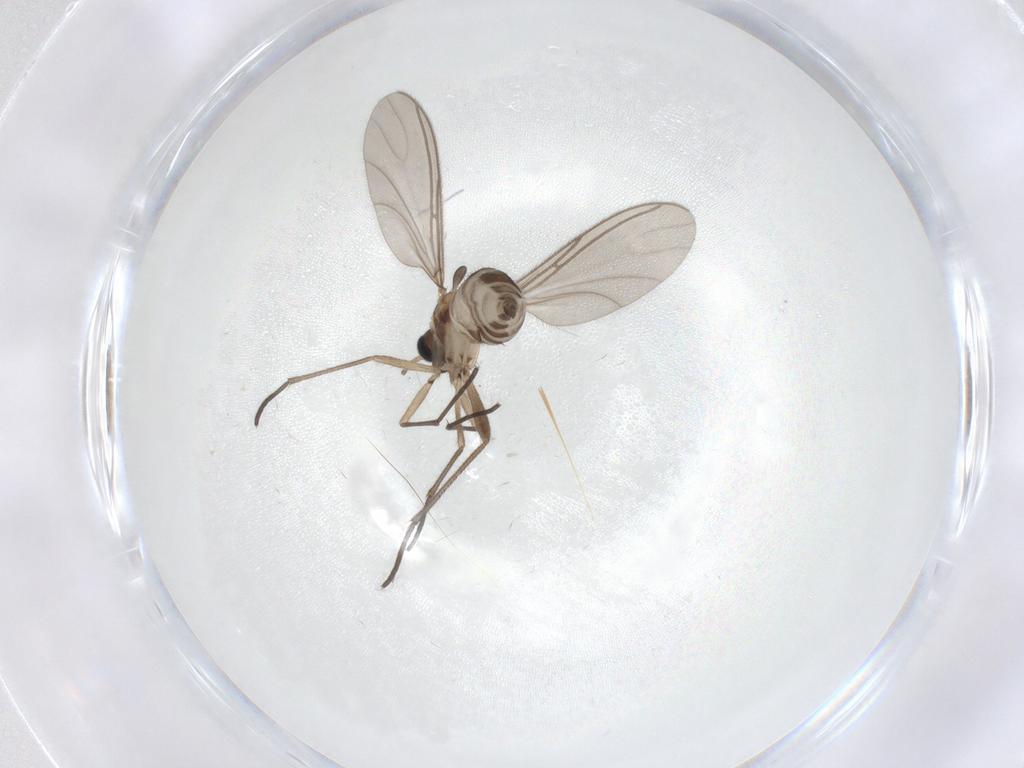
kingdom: Animalia
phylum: Arthropoda
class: Insecta
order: Diptera
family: Sciaridae
